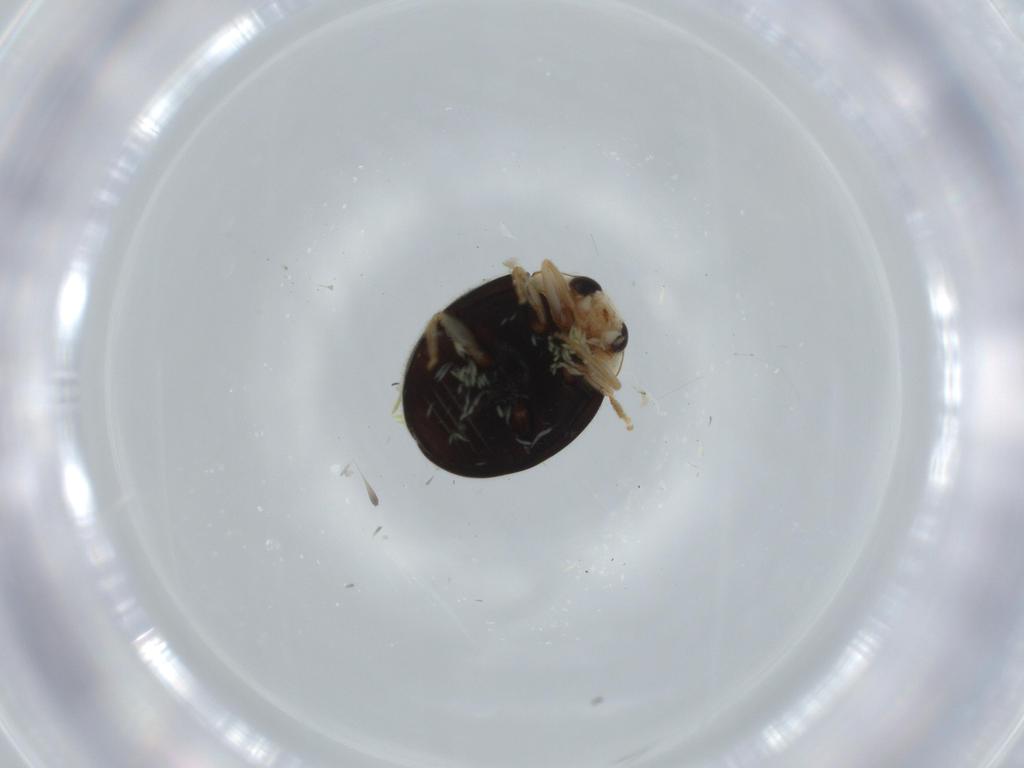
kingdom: Animalia
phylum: Arthropoda
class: Insecta
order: Coleoptera
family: Coccinellidae
